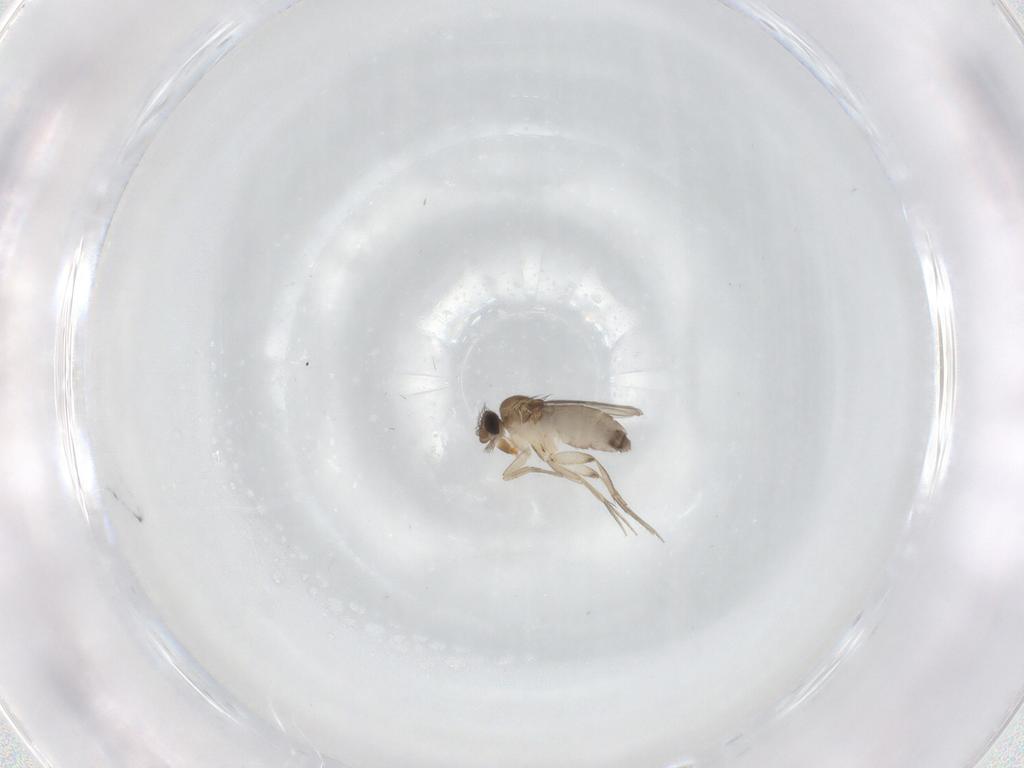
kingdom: Animalia
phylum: Arthropoda
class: Insecta
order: Diptera
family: Phoridae
